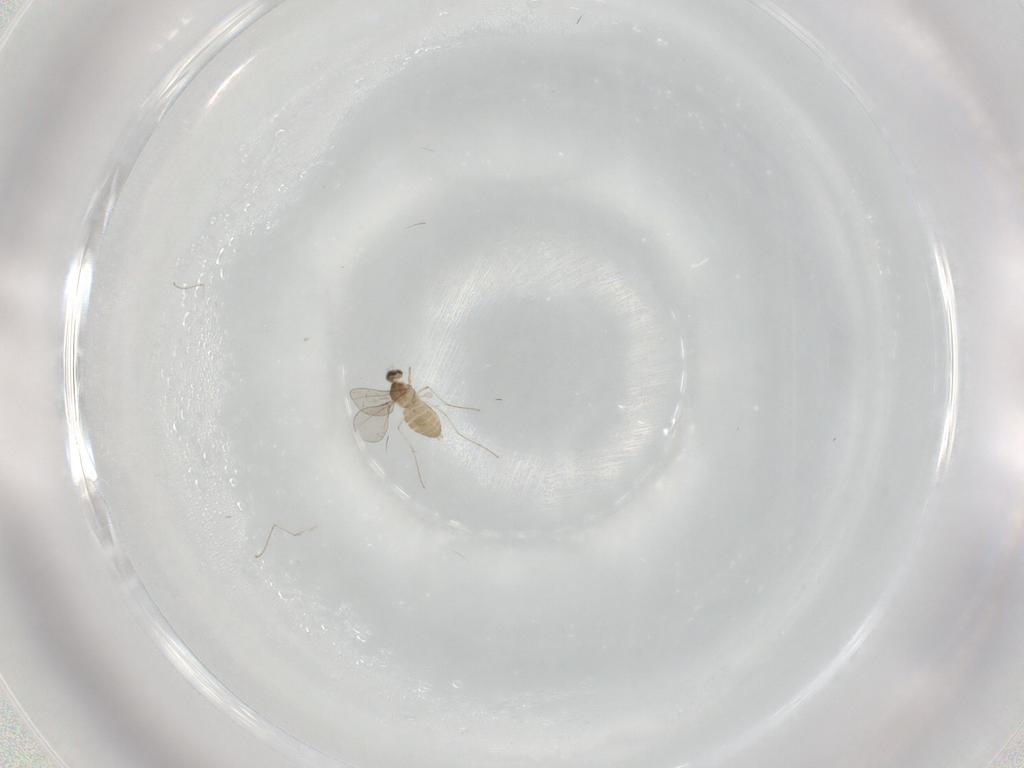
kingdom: Animalia
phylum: Arthropoda
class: Insecta
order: Diptera
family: Cecidomyiidae
